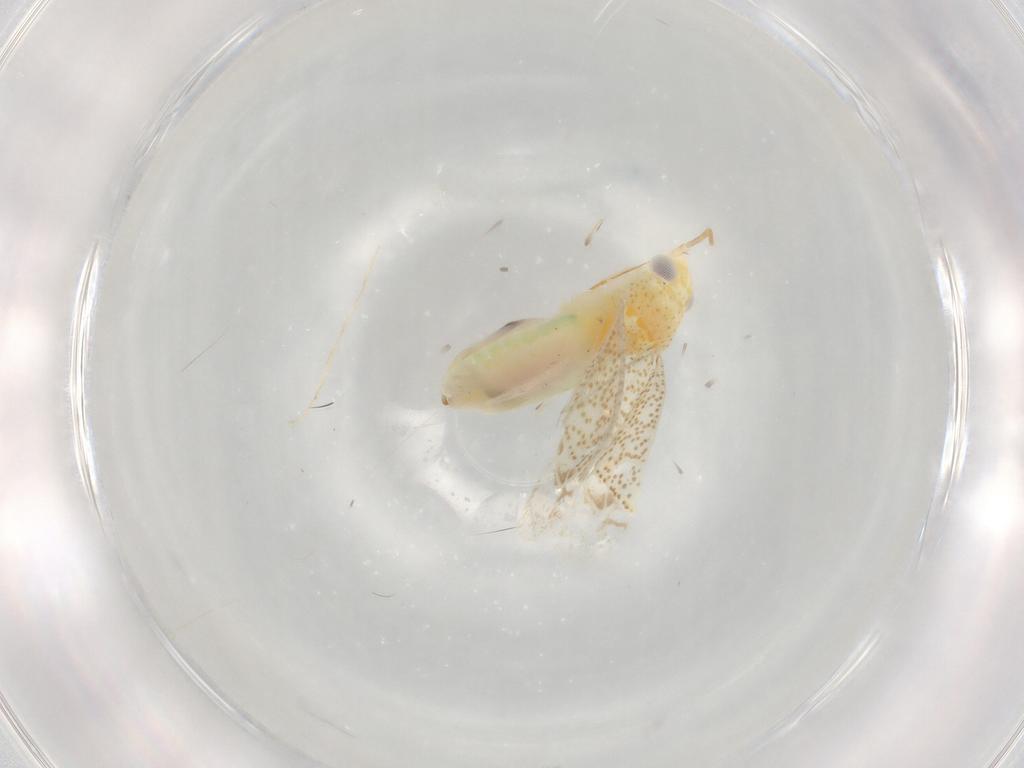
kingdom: Animalia
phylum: Arthropoda
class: Insecta
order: Hemiptera
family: Miridae
